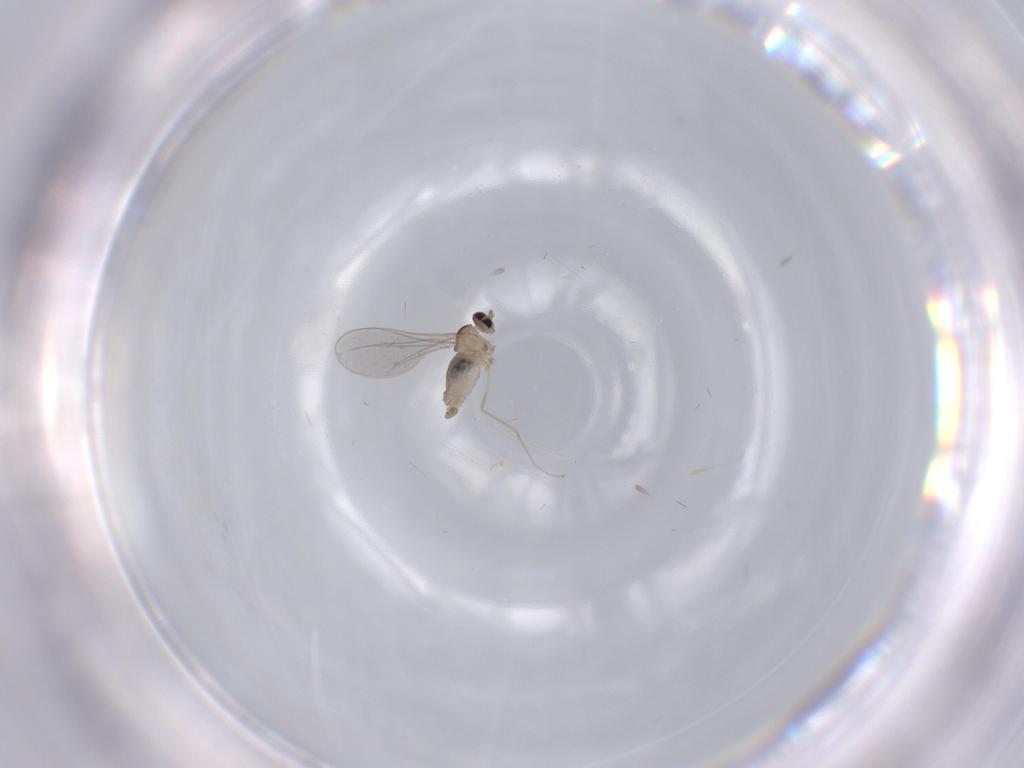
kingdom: Animalia
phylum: Arthropoda
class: Insecta
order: Diptera
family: Cecidomyiidae
